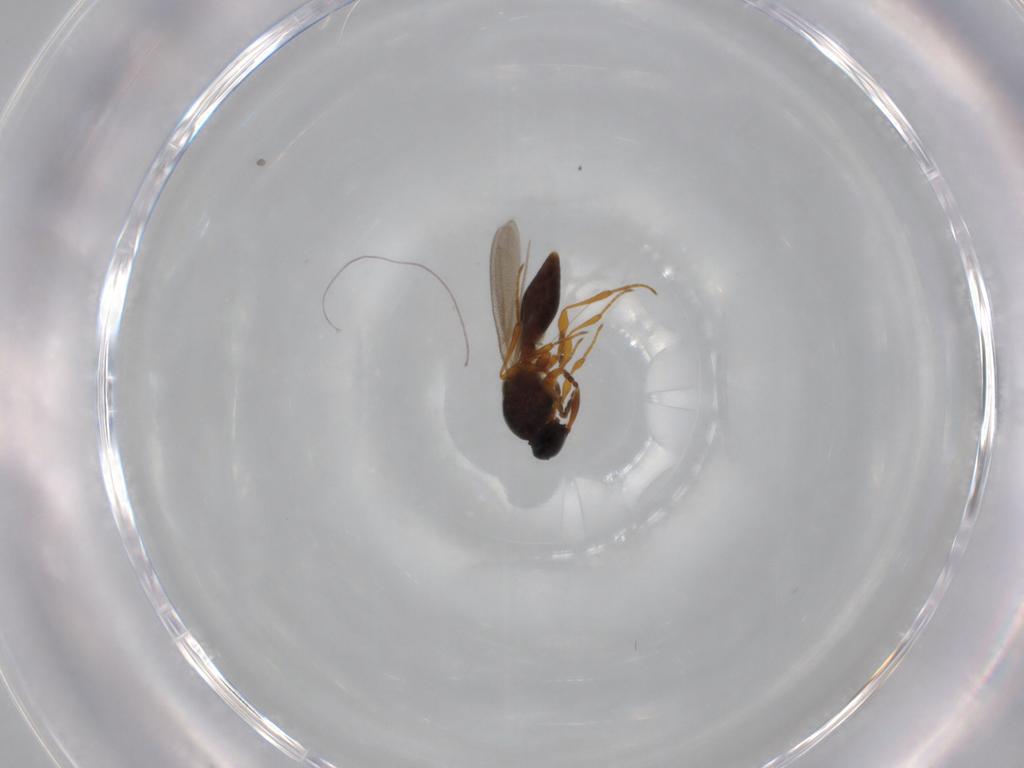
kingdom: Animalia
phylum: Arthropoda
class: Insecta
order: Hymenoptera
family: Platygastridae
